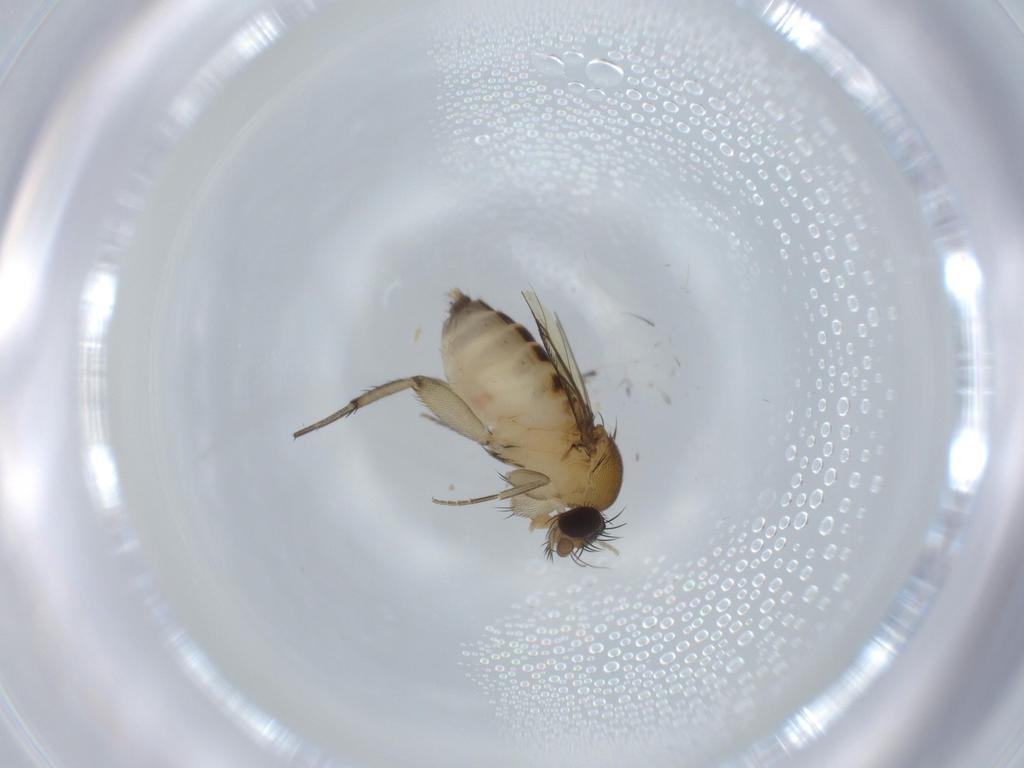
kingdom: Animalia
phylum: Arthropoda
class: Insecta
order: Diptera
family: Phoridae
